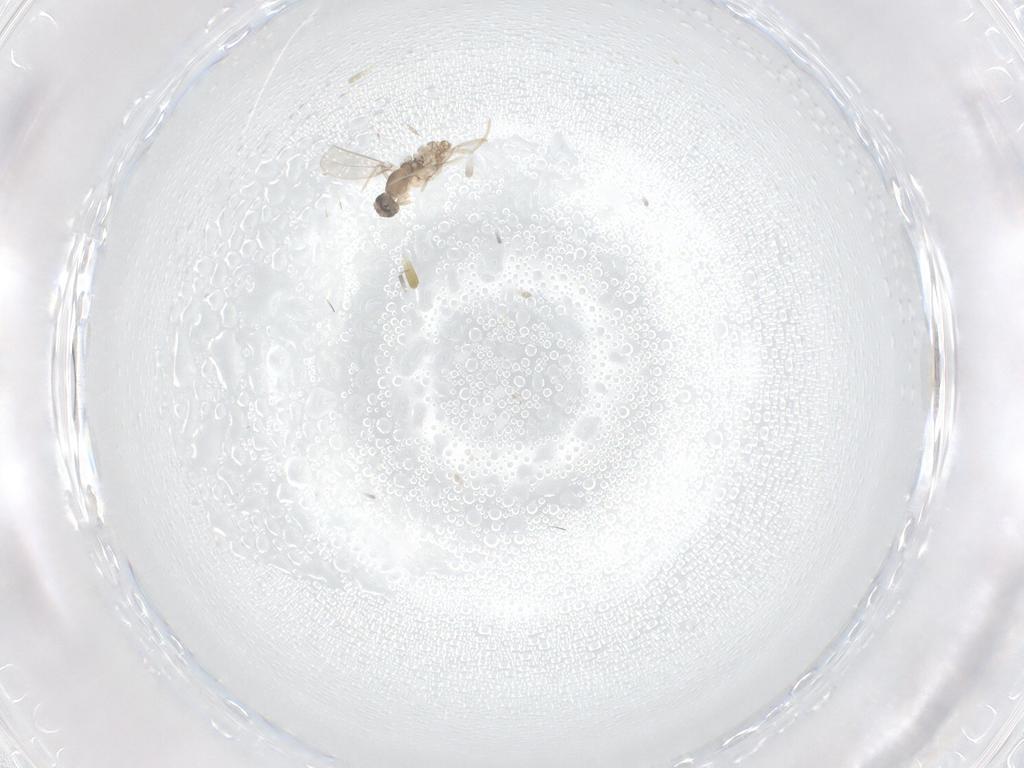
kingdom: Animalia
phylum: Arthropoda
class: Insecta
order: Diptera
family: Cecidomyiidae
